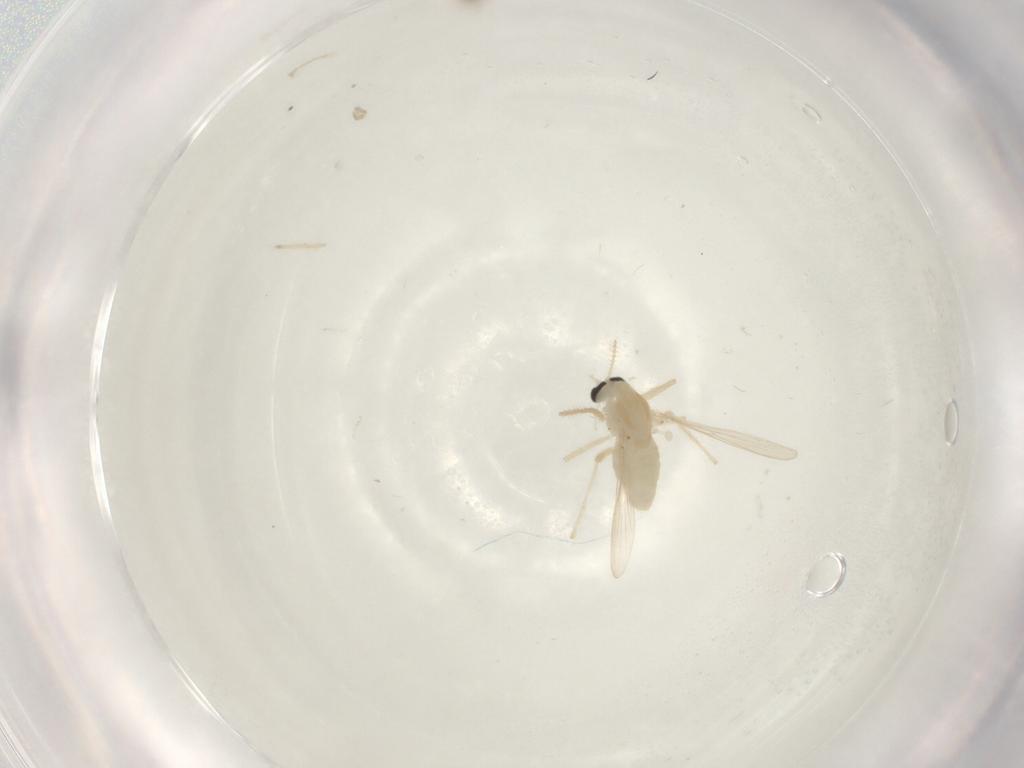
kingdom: Animalia
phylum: Arthropoda
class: Insecta
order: Diptera
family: Chironomidae
